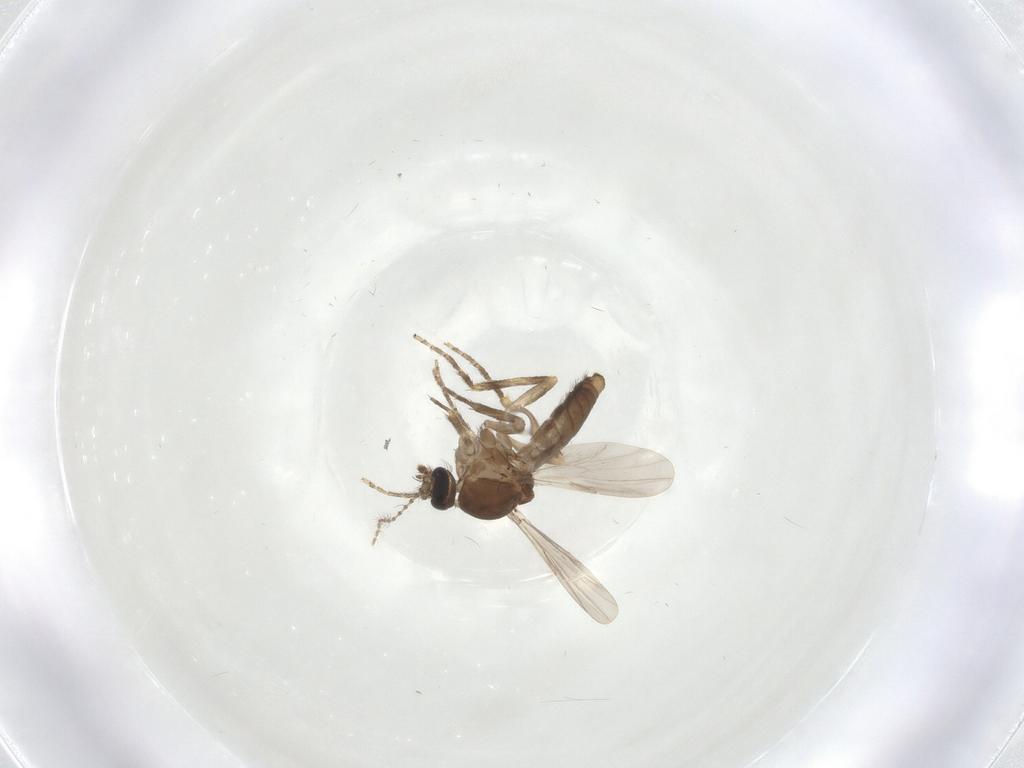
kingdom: Animalia
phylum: Arthropoda
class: Insecta
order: Diptera
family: Ceratopogonidae
